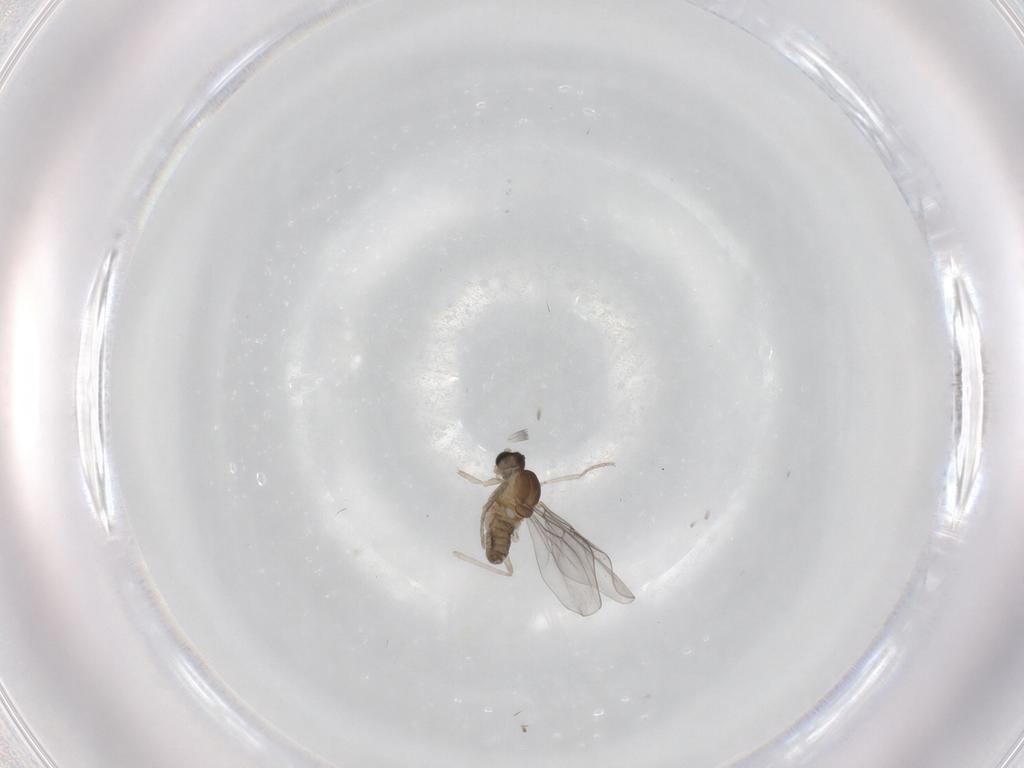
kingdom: Animalia
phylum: Arthropoda
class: Insecta
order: Diptera
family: Cecidomyiidae
